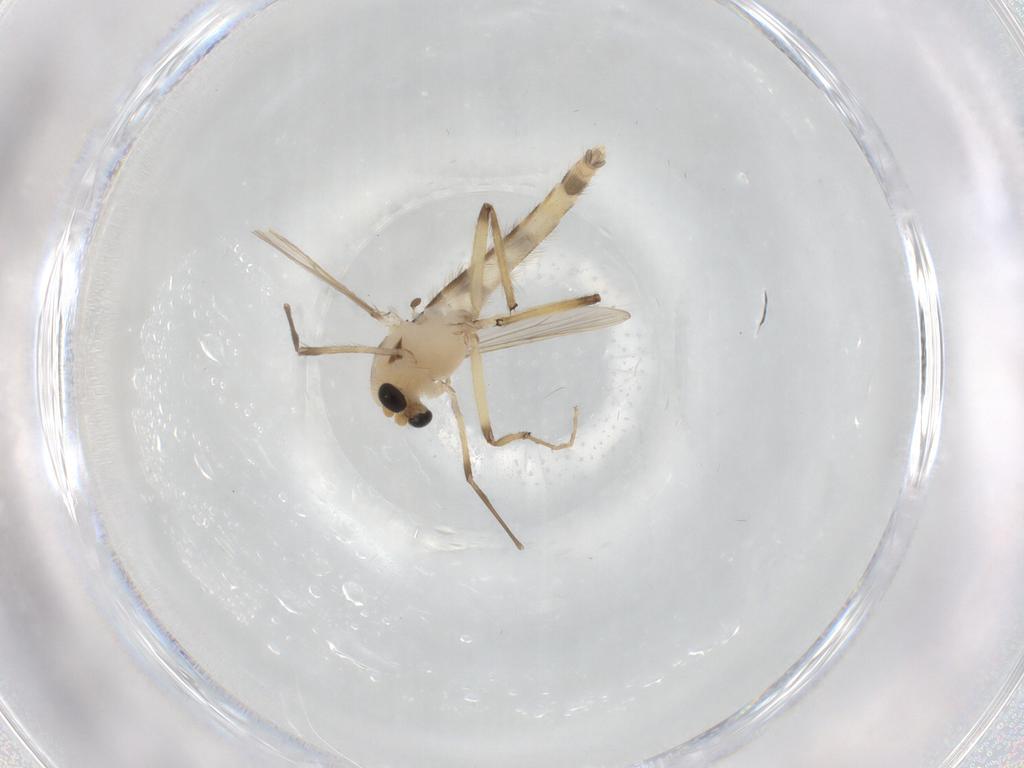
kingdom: Animalia
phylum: Arthropoda
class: Insecta
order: Diptera
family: Chironomidae
